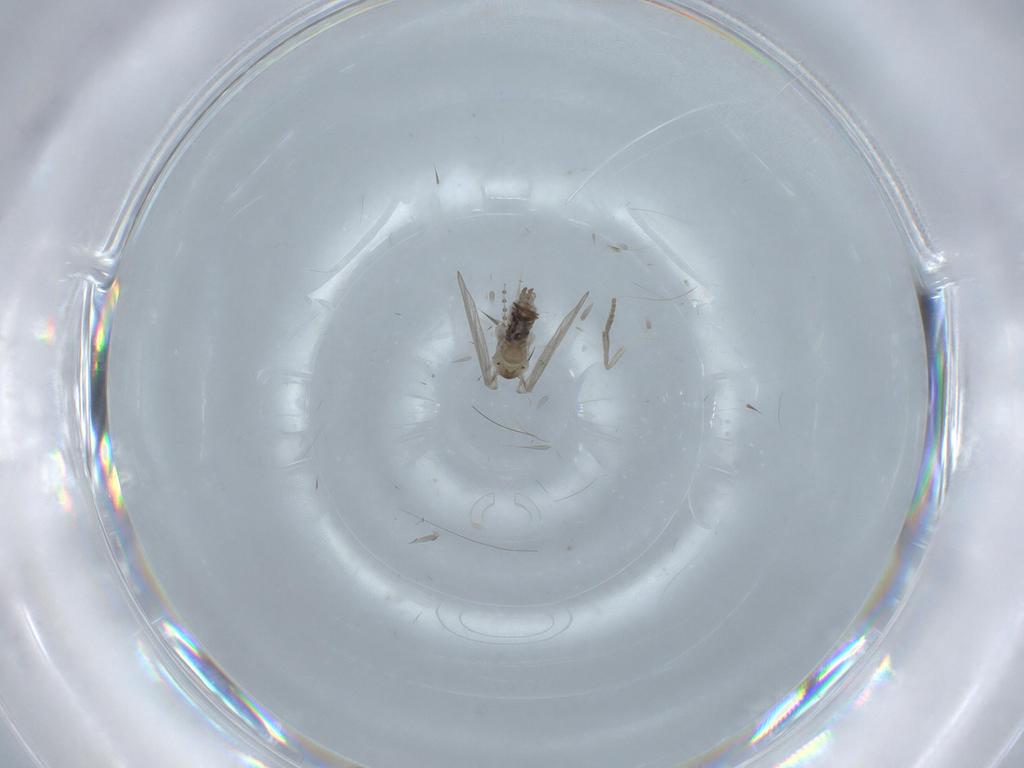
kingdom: Animalia
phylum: Arthropoda
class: Insecta
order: Diptera
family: Psychodidae
